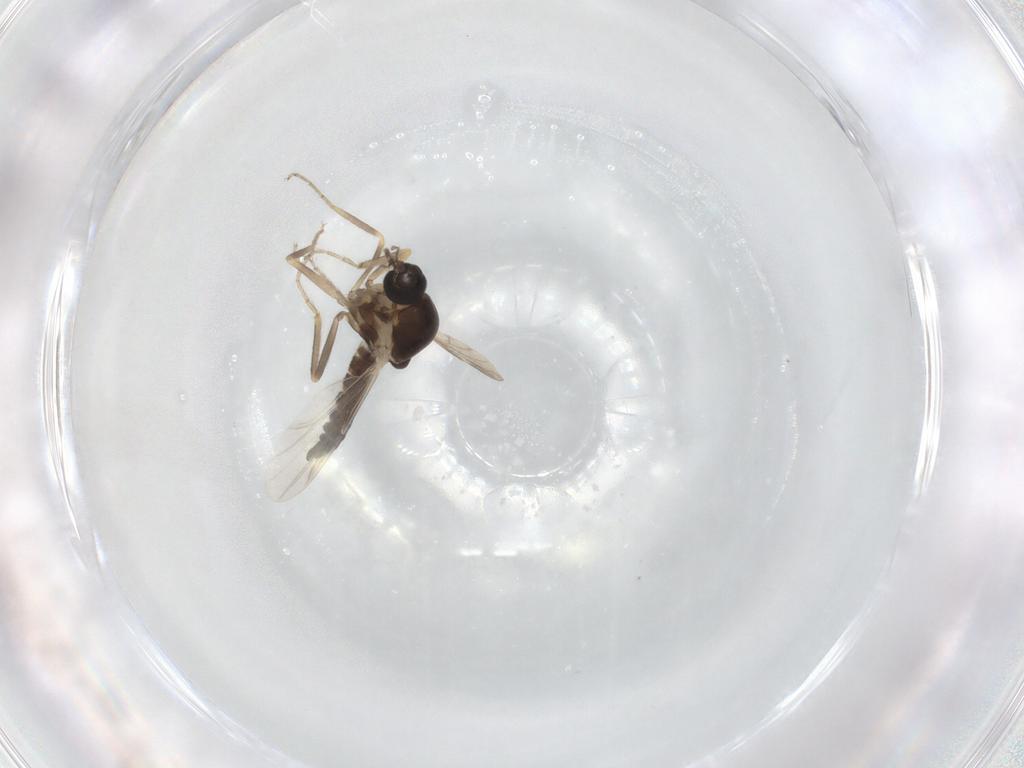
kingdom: Animalia
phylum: Arthropoda
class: Insecta
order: Diptera
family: Ceratopogonidae
